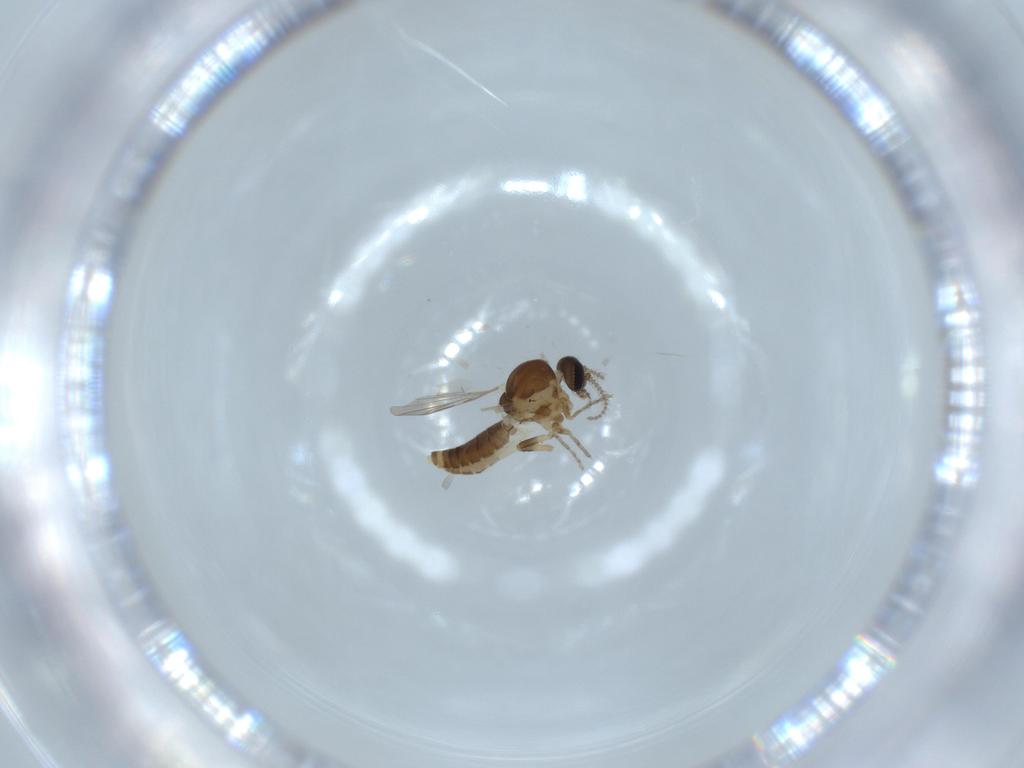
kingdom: Animalia
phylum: Arthropoda
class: Insecta
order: Diptera
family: Ceratopogonidae
